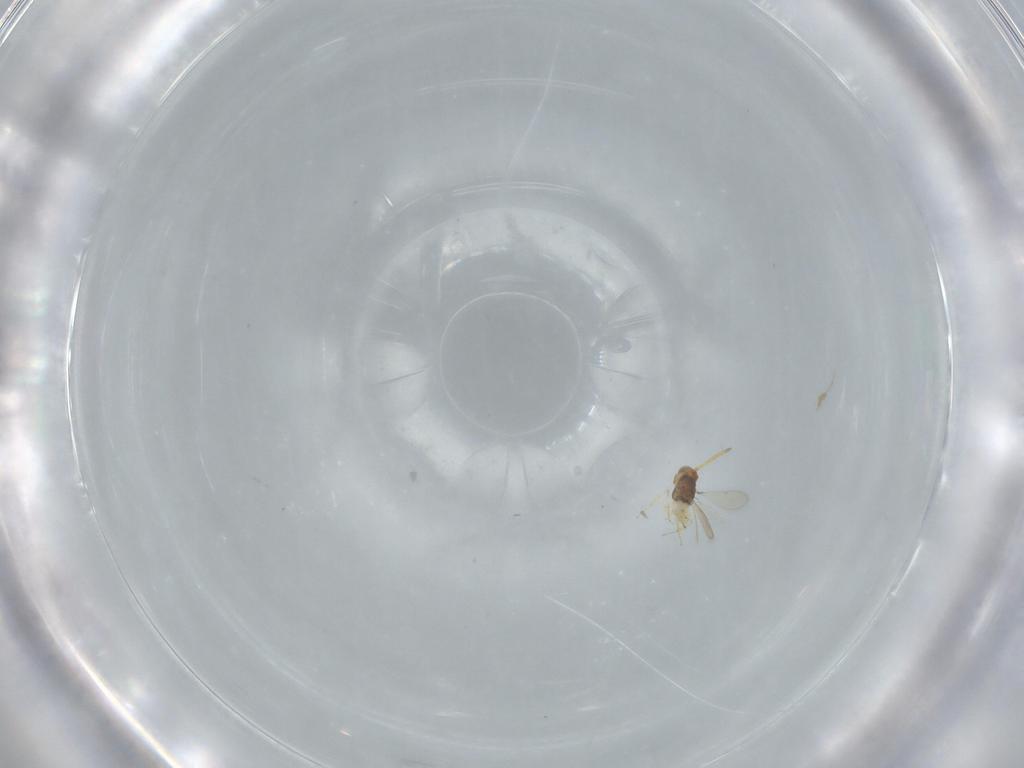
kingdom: Animalia
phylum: Arthropoda
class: Insecta
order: Hymenoptera
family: Aphelinidae
